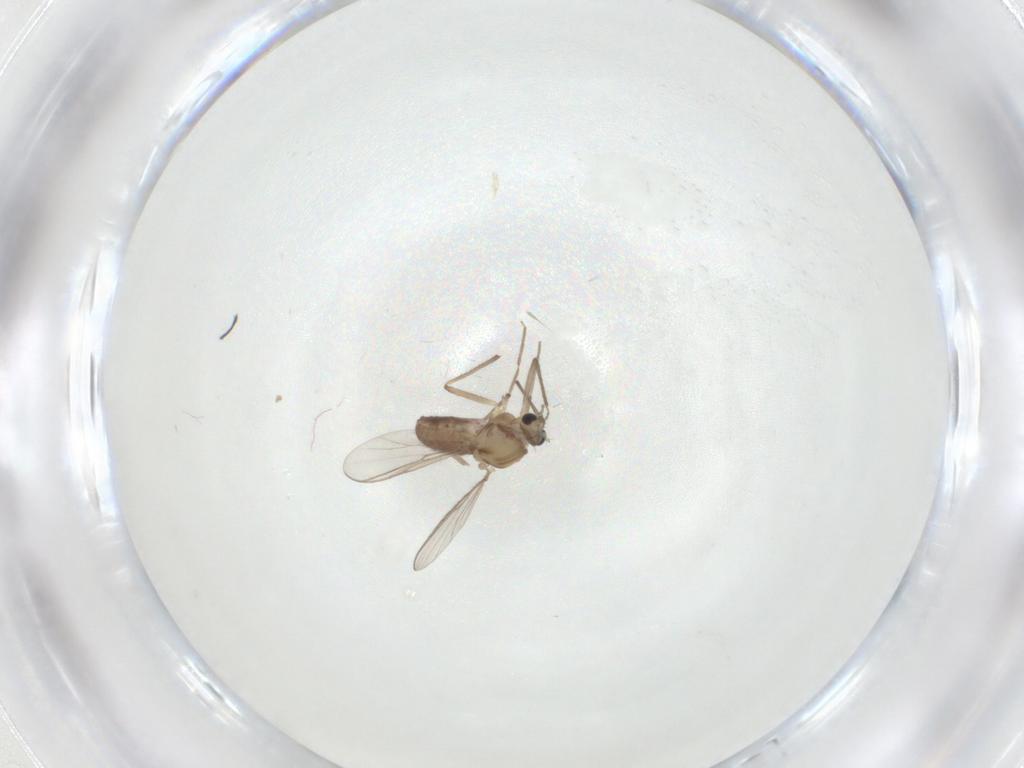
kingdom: Animalia
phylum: Arthropoda
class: Insecta
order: Diptera
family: Chironomidae
